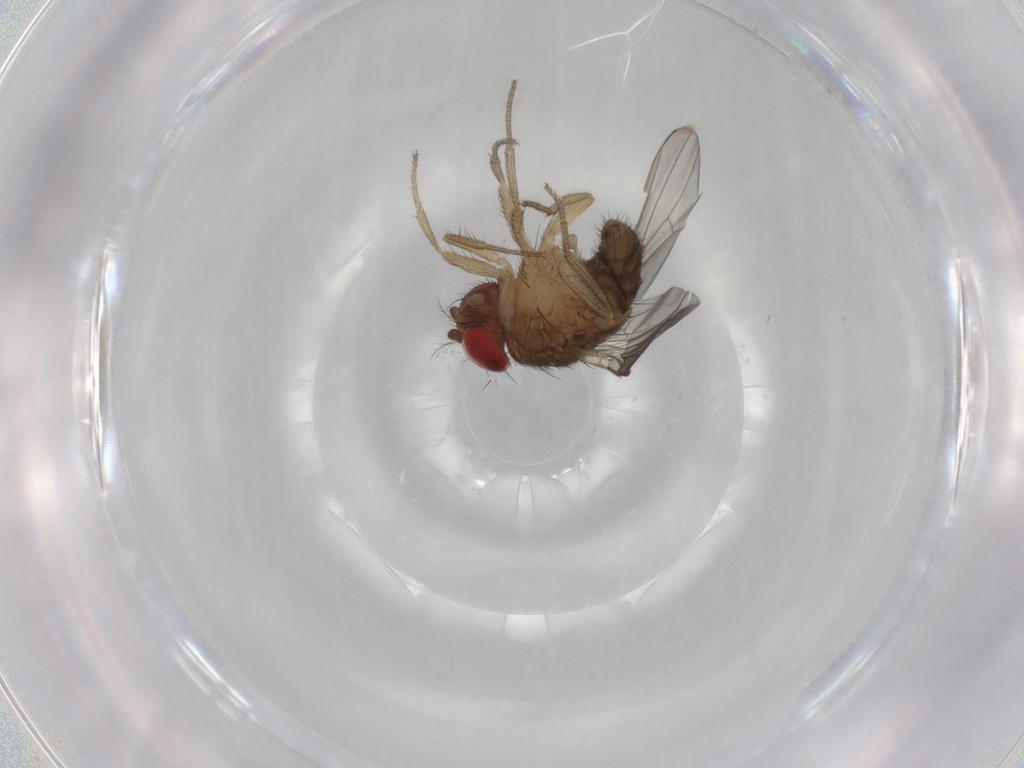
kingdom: Animalia
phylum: Arthropoda
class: Insecta
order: Diptera
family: Drosophilidae
